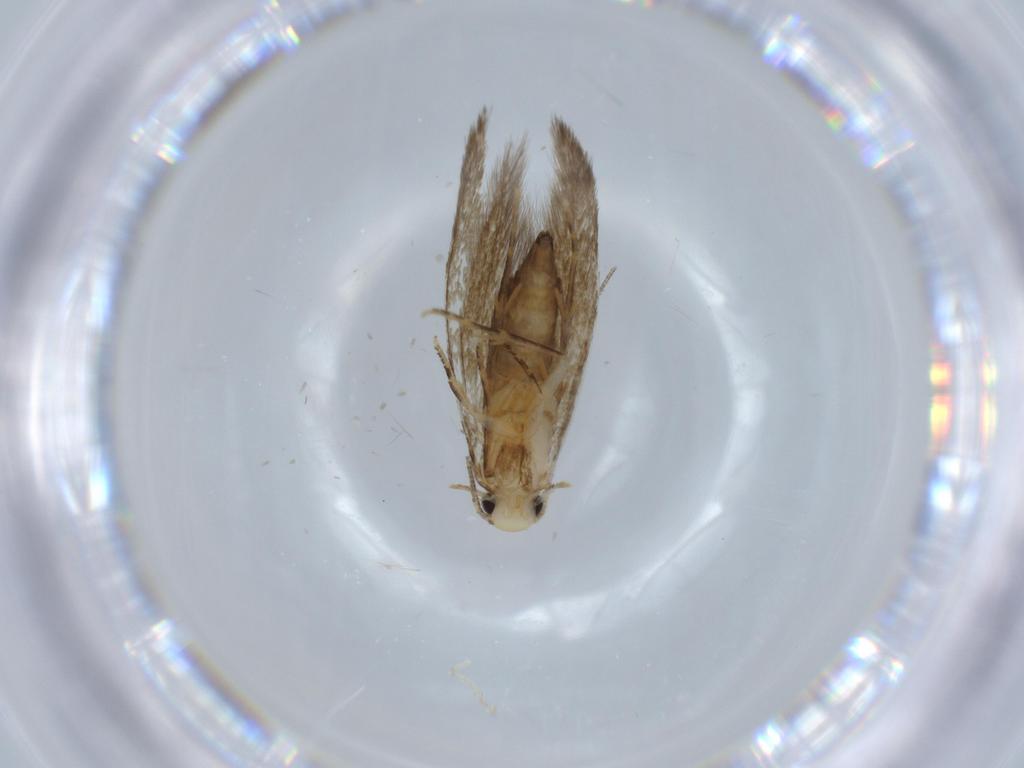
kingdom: Animalia
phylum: Arthropoda
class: Insecta
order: Lepidoptera
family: Tineidae
